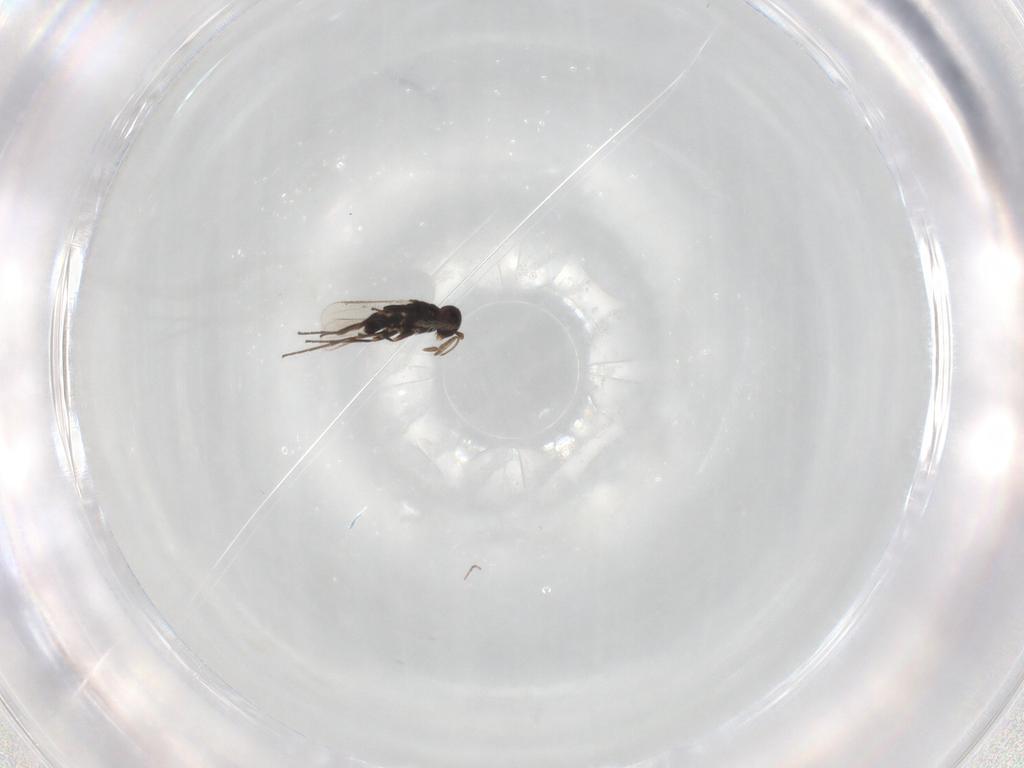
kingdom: Animalia
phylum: Arthropoda
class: Insecta
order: Hymenoptera
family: Eulophidae
